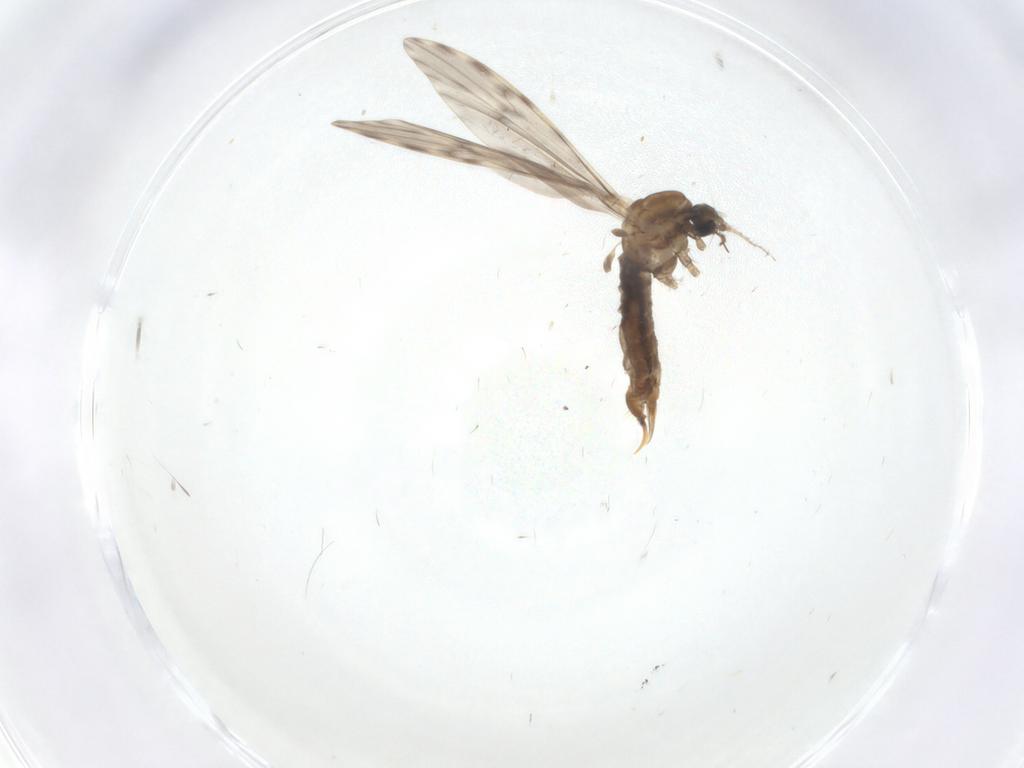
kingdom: Animalia
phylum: Arthropoda
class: Insecta
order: Diptera
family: Limoniidae
